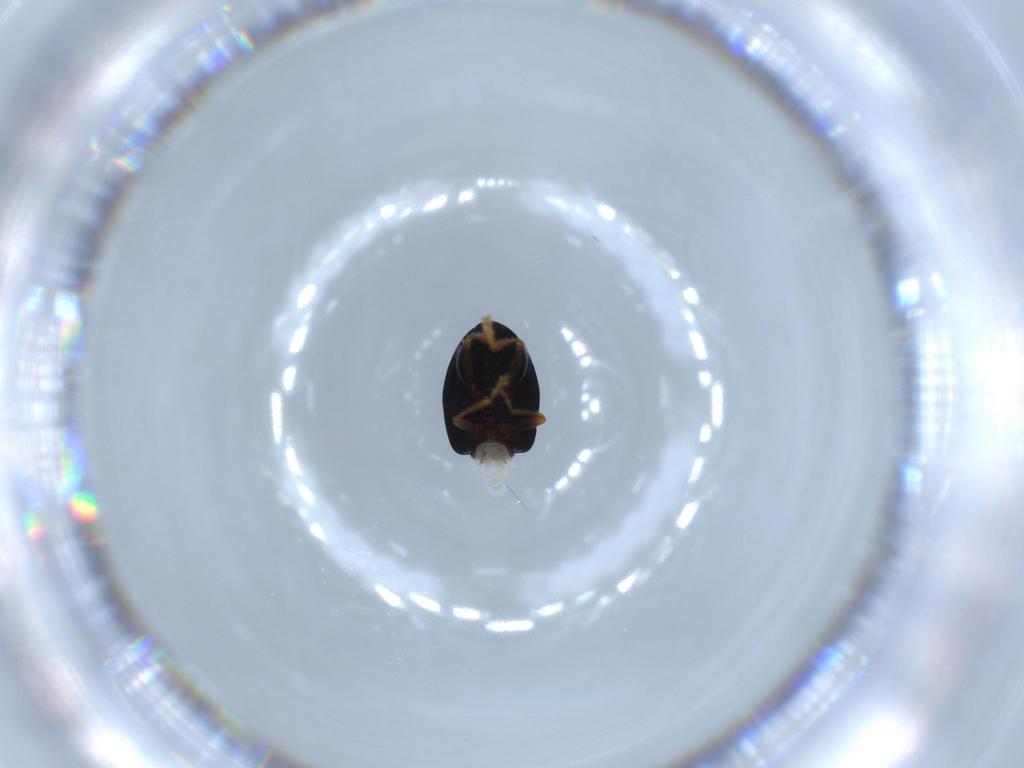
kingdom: Animalia
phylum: Arthropoda
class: Insecta
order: Coleoptera
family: Chrysomelidae
